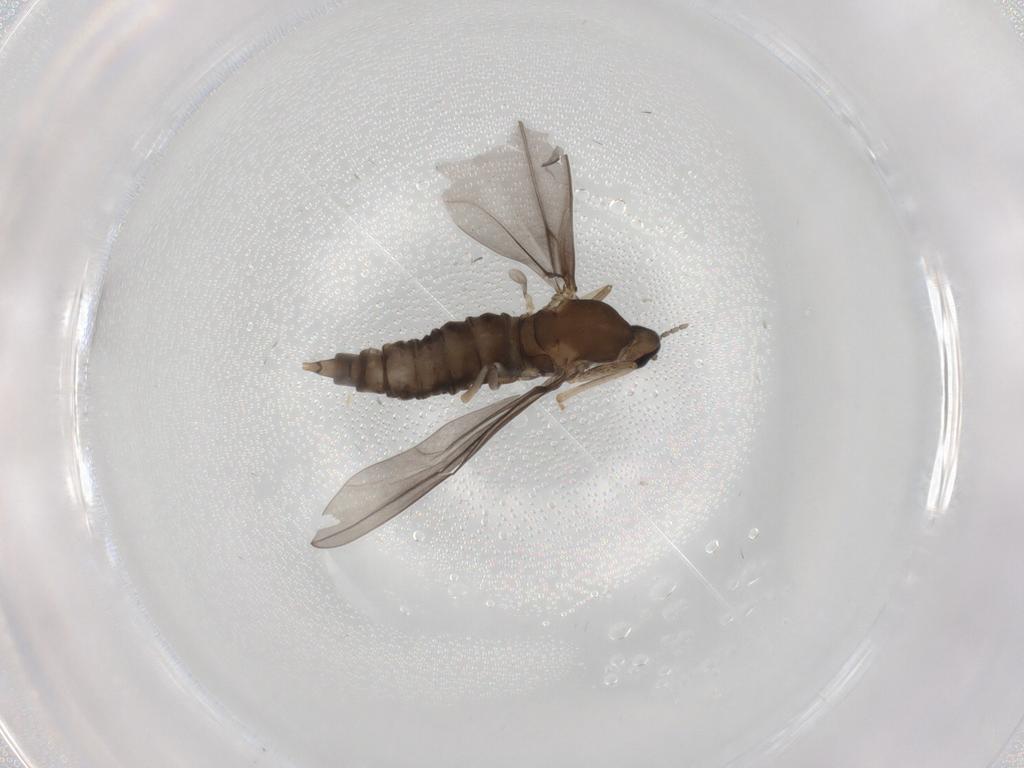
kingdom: Animalia
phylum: Arthropoda
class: Insecta
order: Diptera
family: Cecidomyiidae
